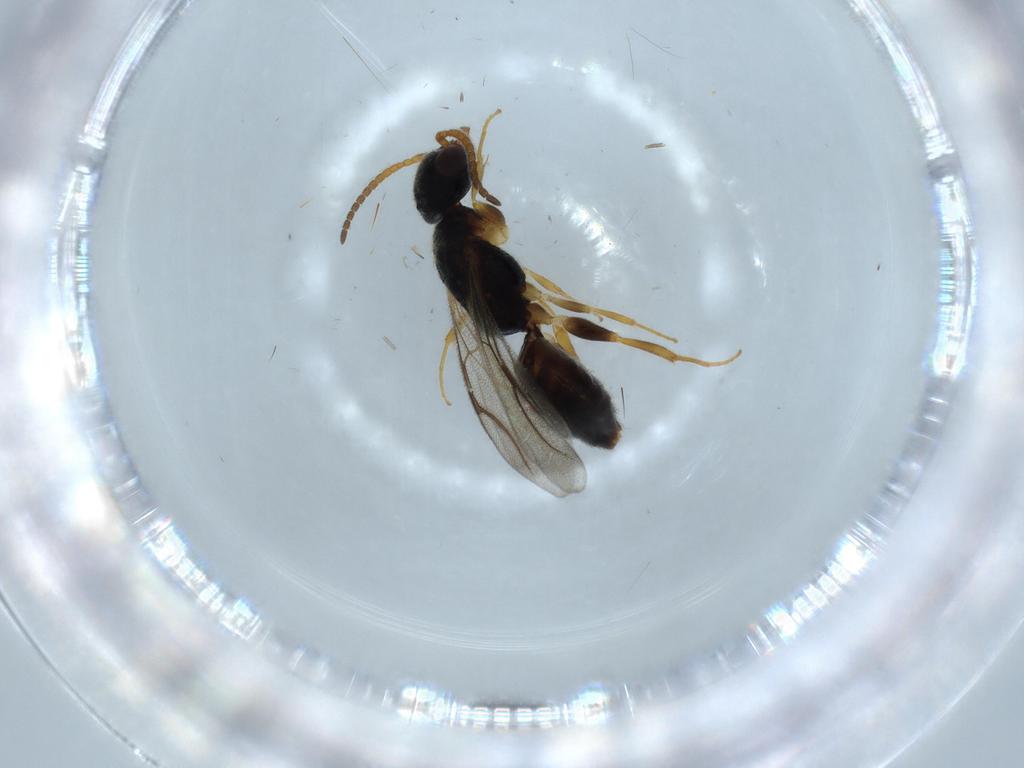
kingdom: Animalia
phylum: Arthropoda
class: Insecta
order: Hymenoptera
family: Bethylidae
